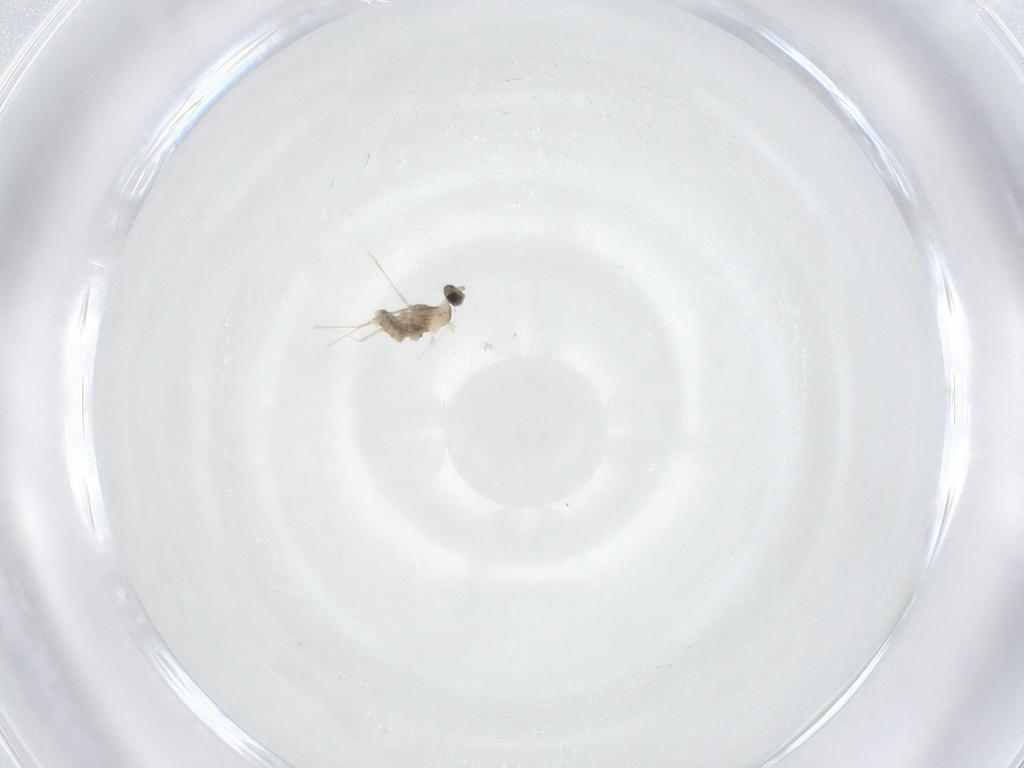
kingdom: Animalia
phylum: Arthropoda
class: Insecta
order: Diptera
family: Cecidomyiidae
